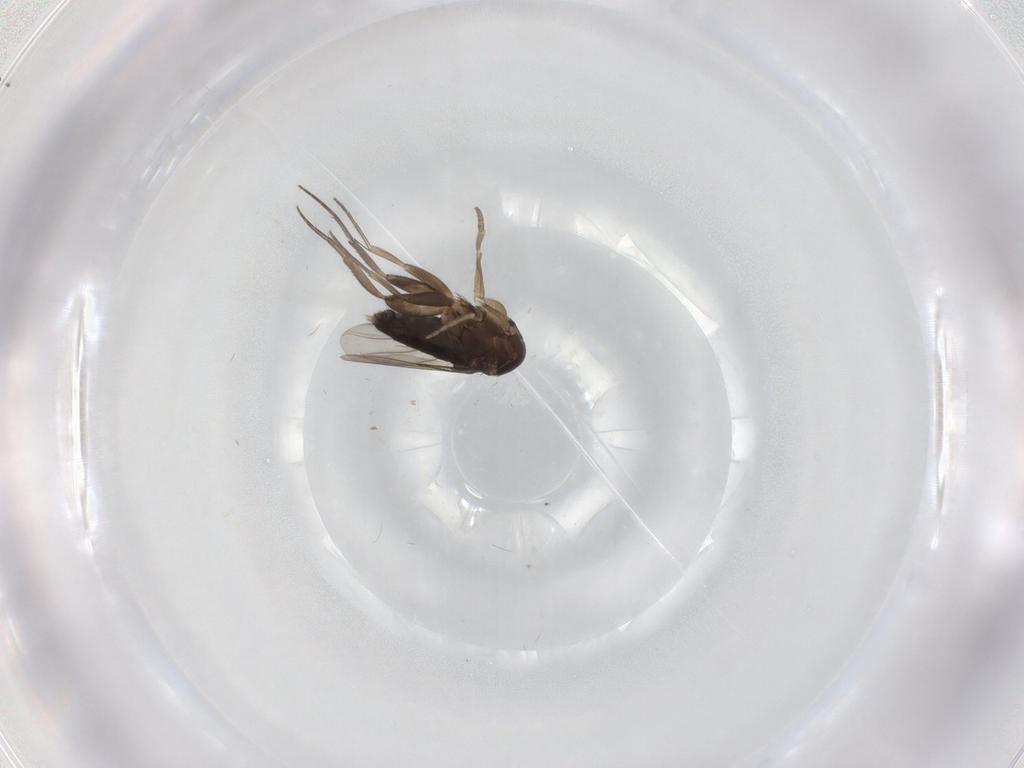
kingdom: Animalia
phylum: Arthropoda
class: Insecta
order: Diptera
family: Phoridae
